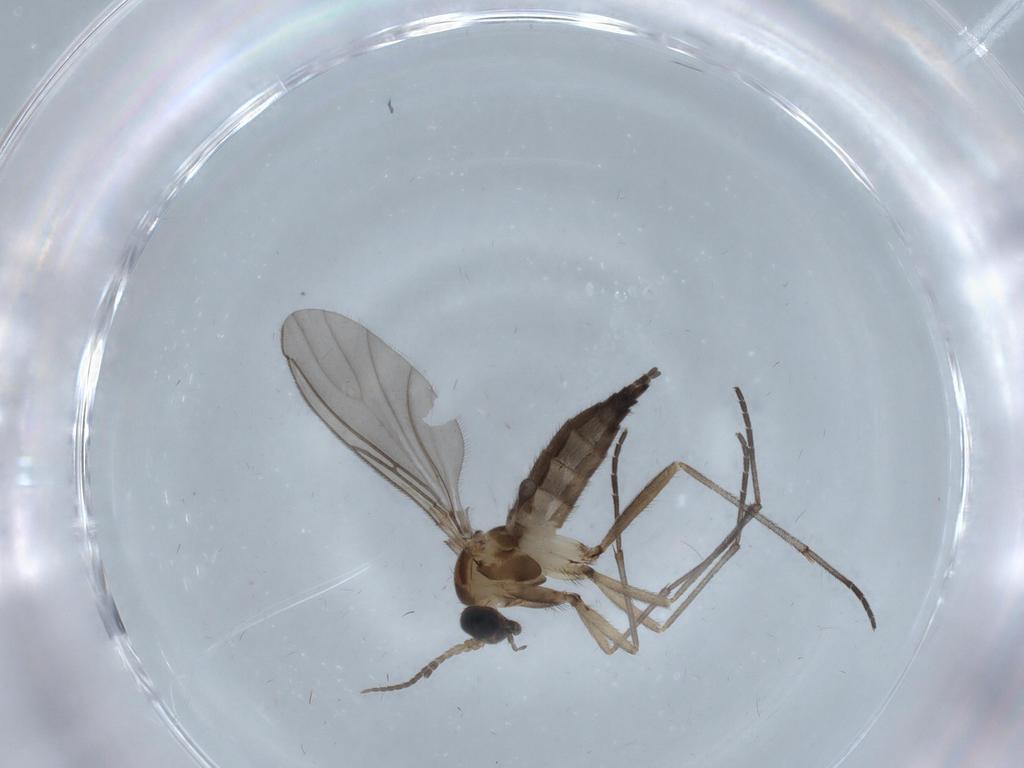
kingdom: Animalia
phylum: Arthropoda
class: Insecta
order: Diptera
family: Sciaridae
